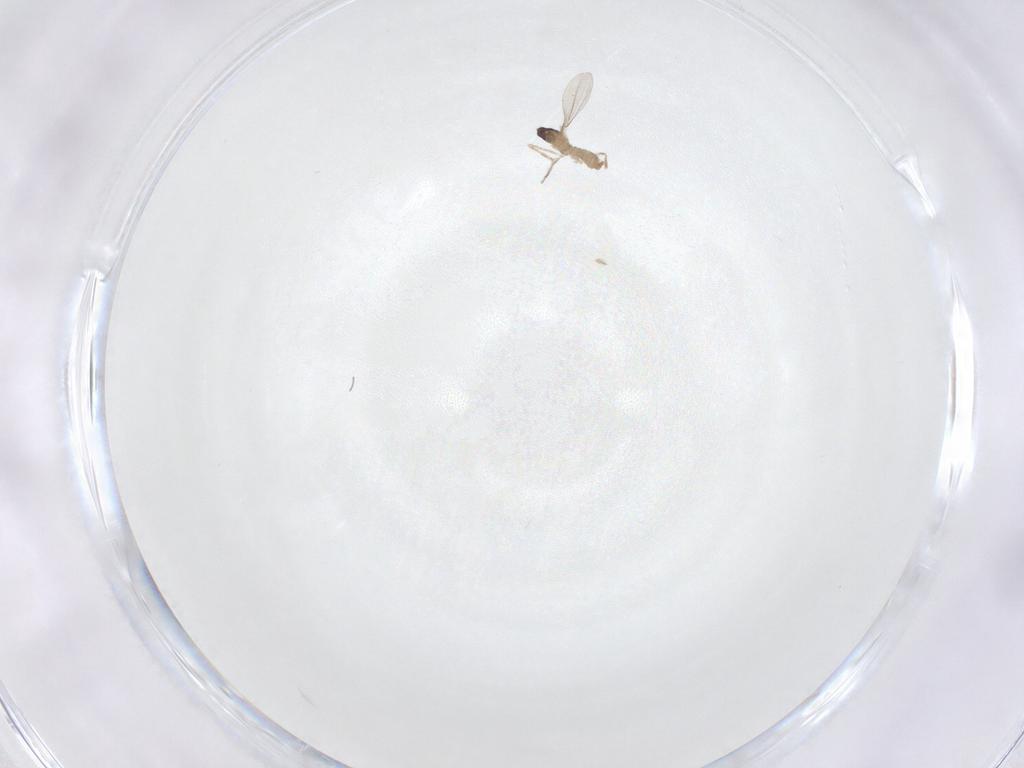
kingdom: Animalia
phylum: Arthropoda
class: Insecta
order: Diptera
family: Cecidomyiidae
